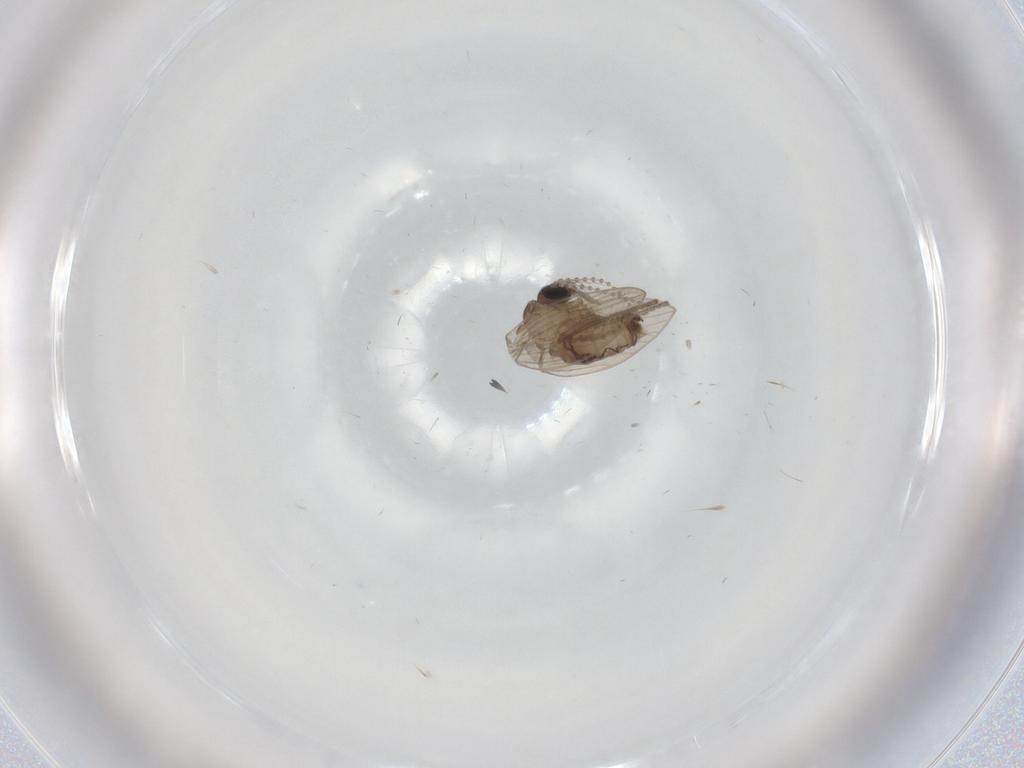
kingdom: Animalia
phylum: Arthropoda
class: Insecta
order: Diptera
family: Psychodidae
